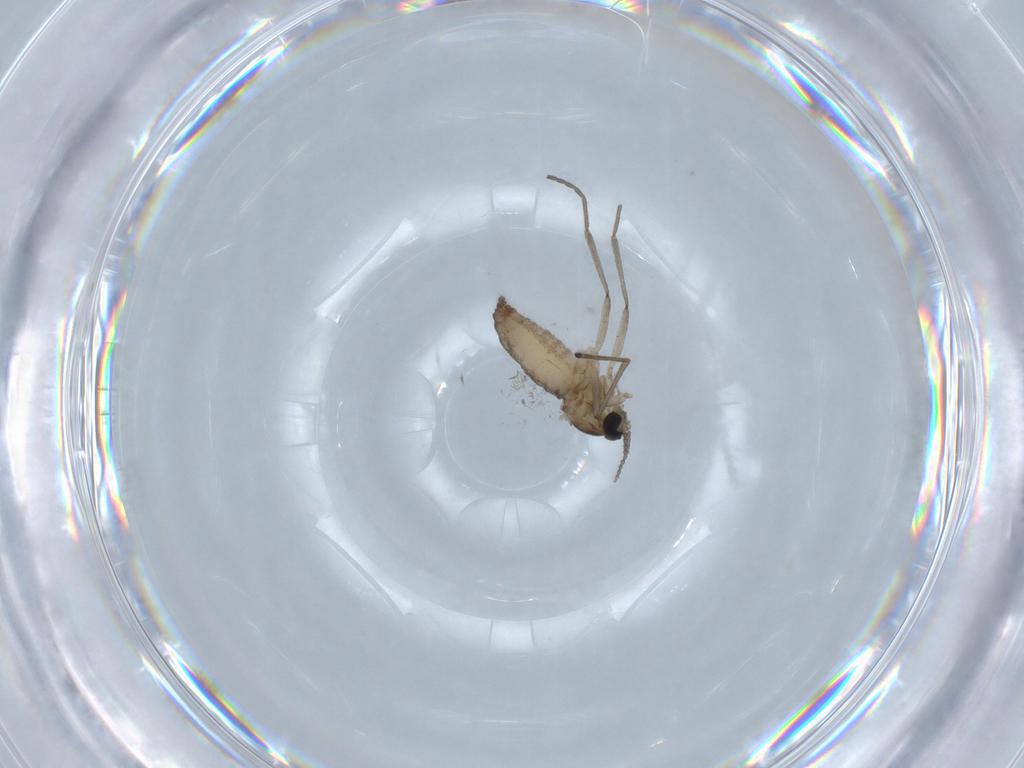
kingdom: Animalia
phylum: Arthropoda
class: Insecta
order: Diptera
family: Cecidomyiidae
